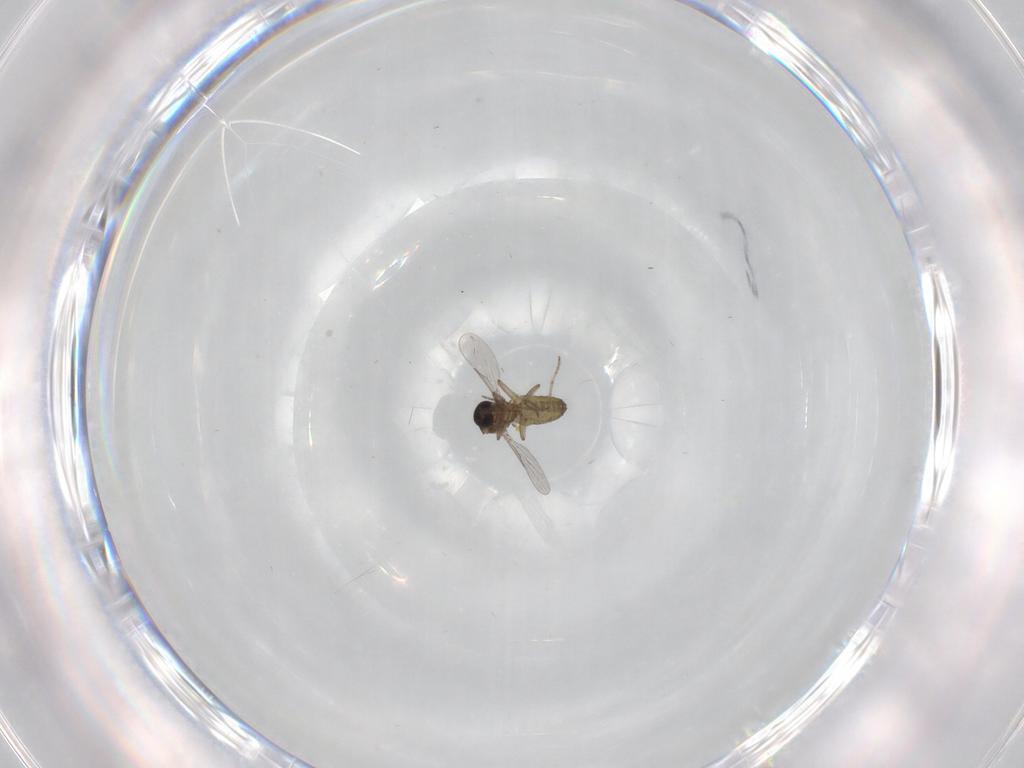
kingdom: Animalia
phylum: Arthropoda
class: Insecta
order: Diptera
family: Ceratopogonidae
